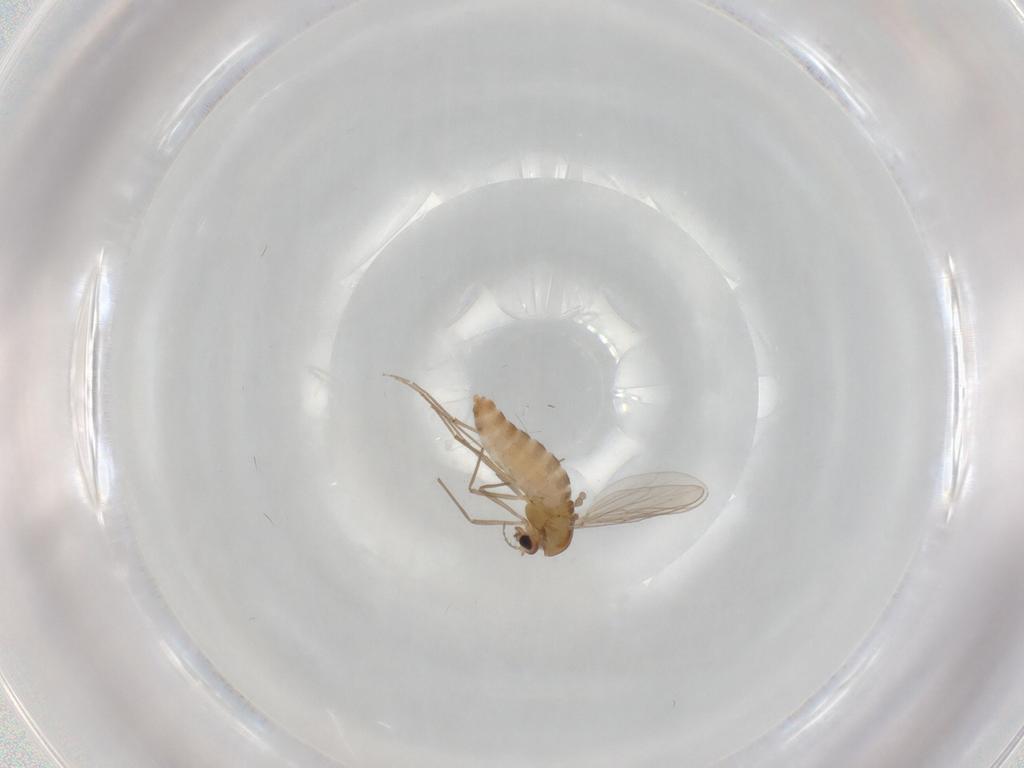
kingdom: Animalia
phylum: Arthropoda
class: Insecta
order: Diptera
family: Chironomidae
